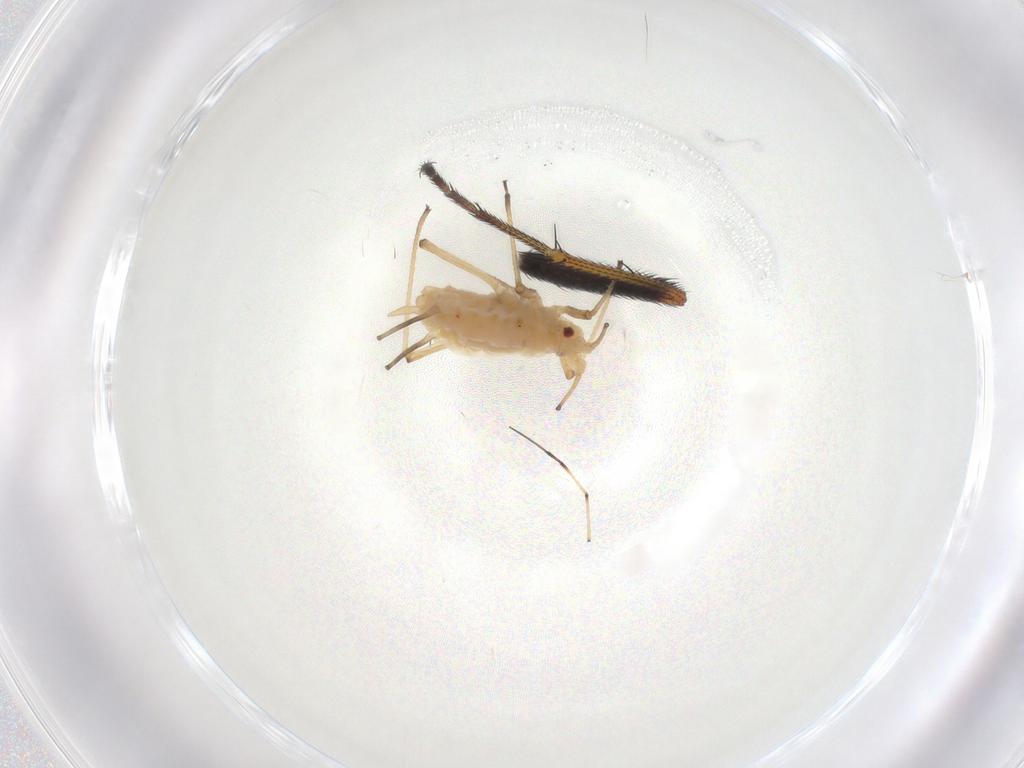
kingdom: Animalia
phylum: Arthropoda
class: Insecta
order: Hemiptera
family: Aphididae
